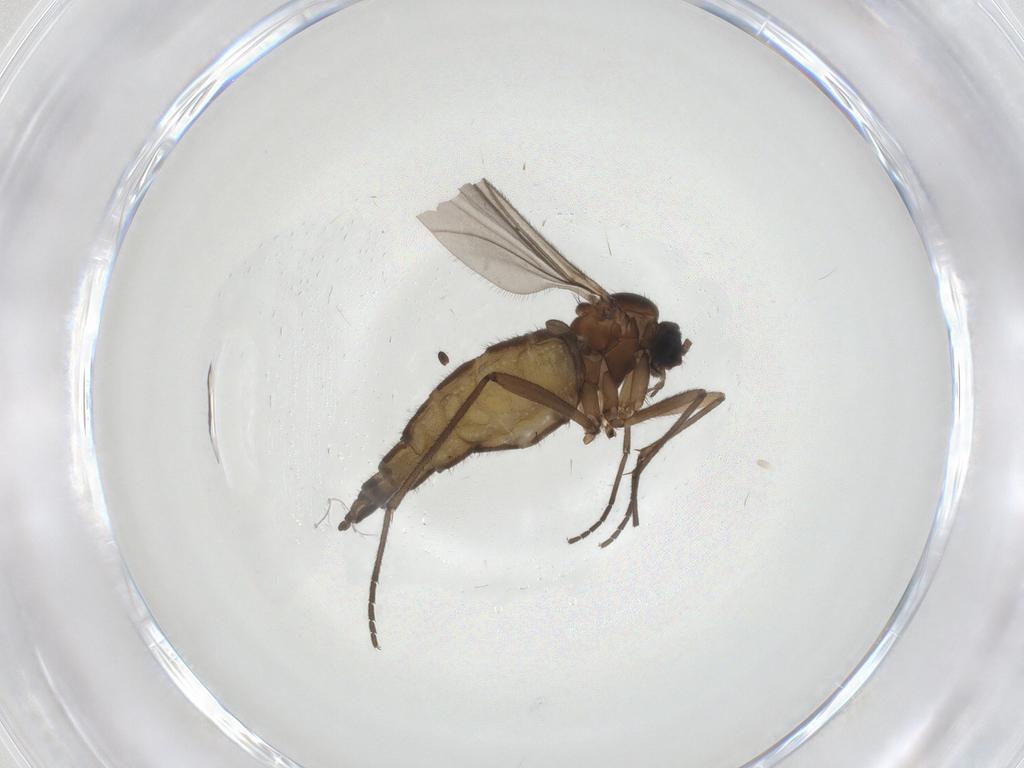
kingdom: Animalia
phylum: Arthropoda
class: Insecta
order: Diptera
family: Sciaridae
